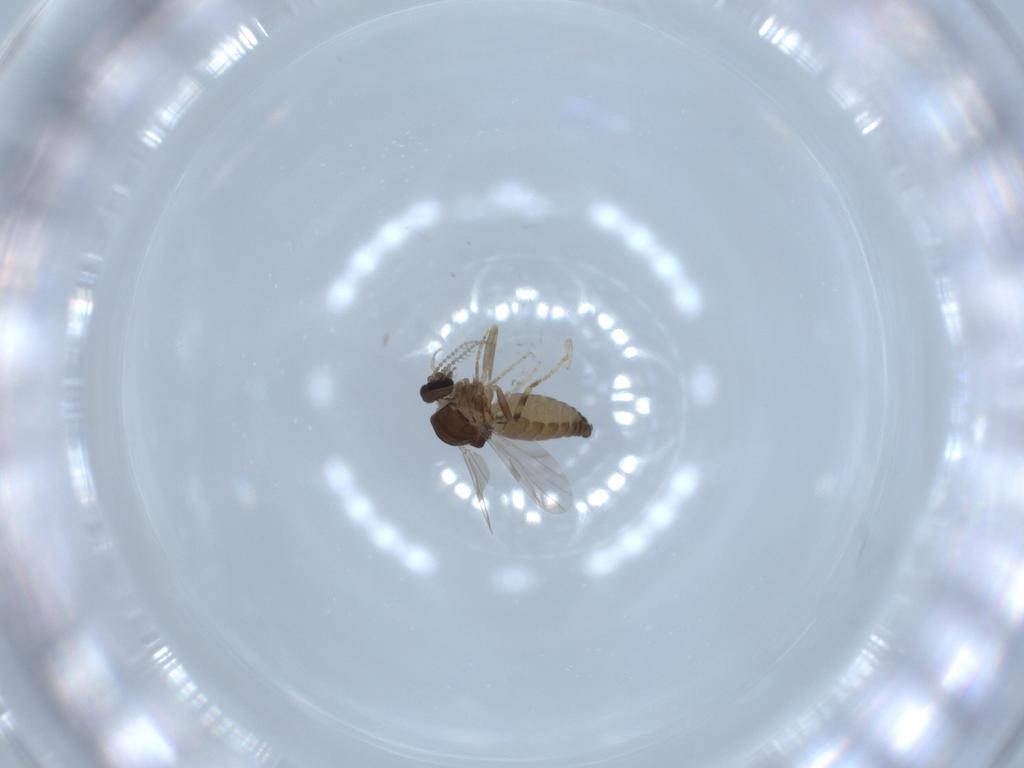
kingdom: Animalia
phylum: Arthropoda
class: Insecta
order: Diptera
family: Ceratopogonidae
